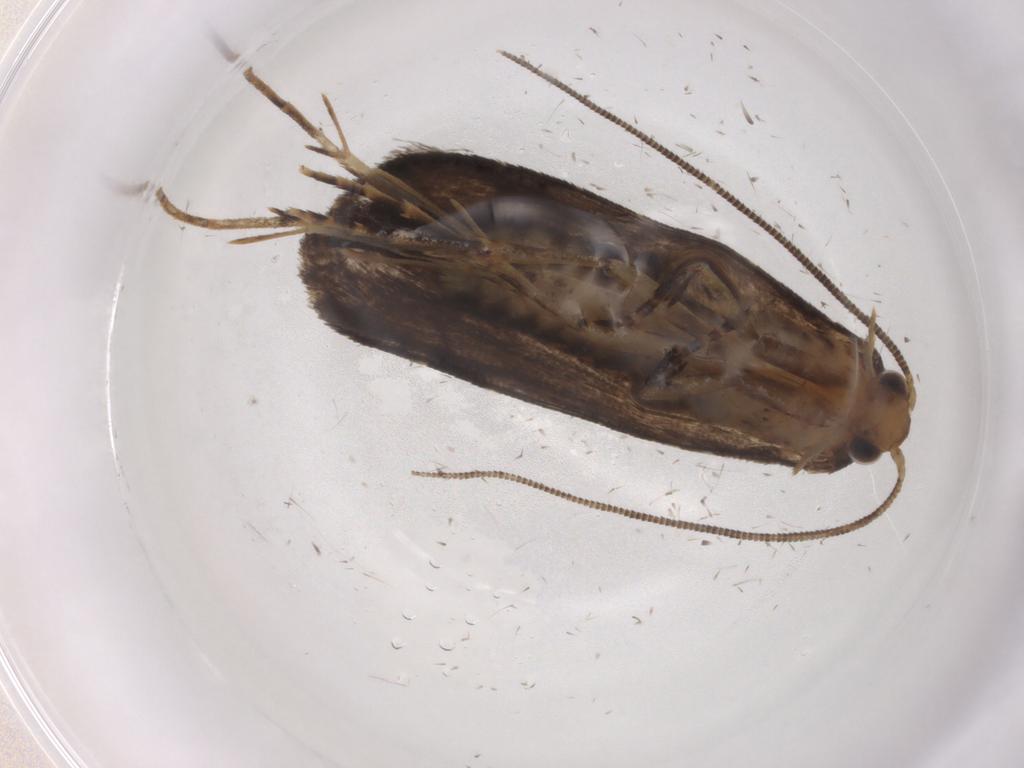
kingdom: Animalia
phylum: Arthropoda
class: Insecta
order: Lepidoptera
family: Tineidae
